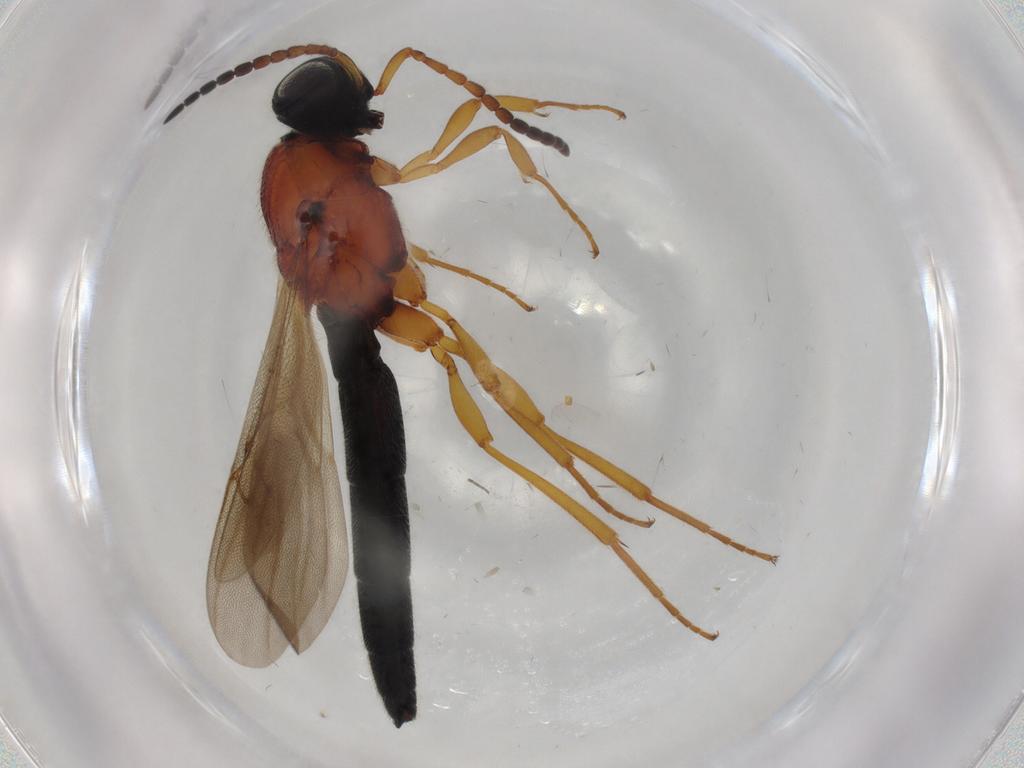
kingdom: Animalia
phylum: Arthropoda
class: Insecta
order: Hymenoptera
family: Scelionidae
